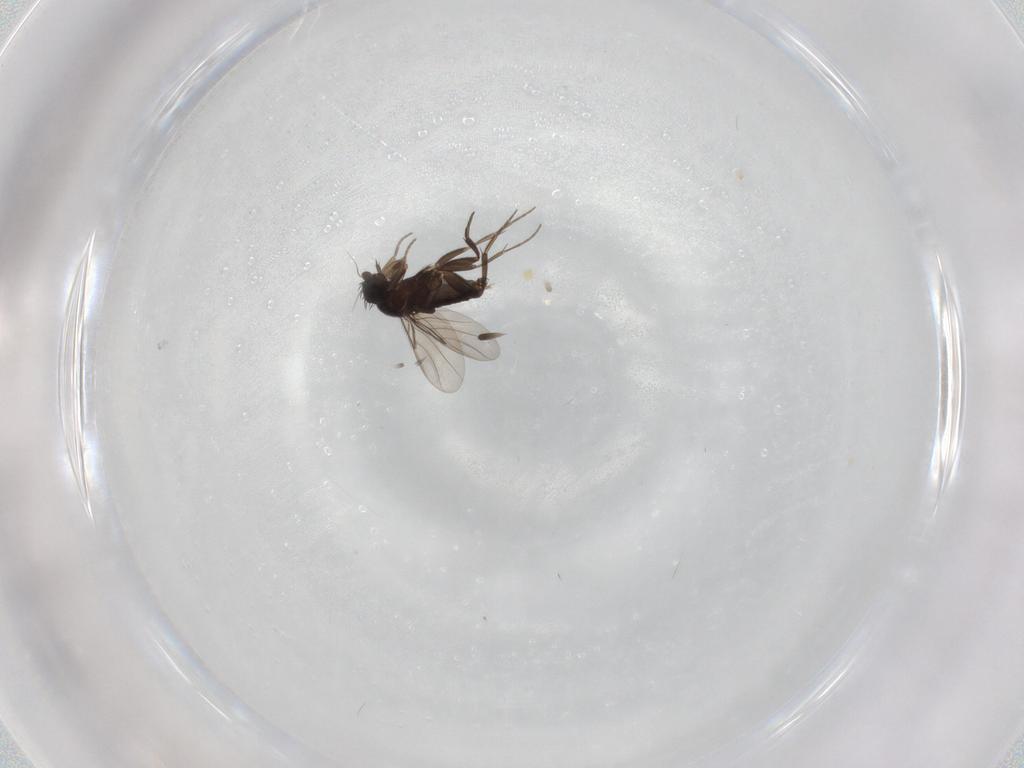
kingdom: Animalia
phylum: Arthropoda
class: Insecta
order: Diptera
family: Phoridae
